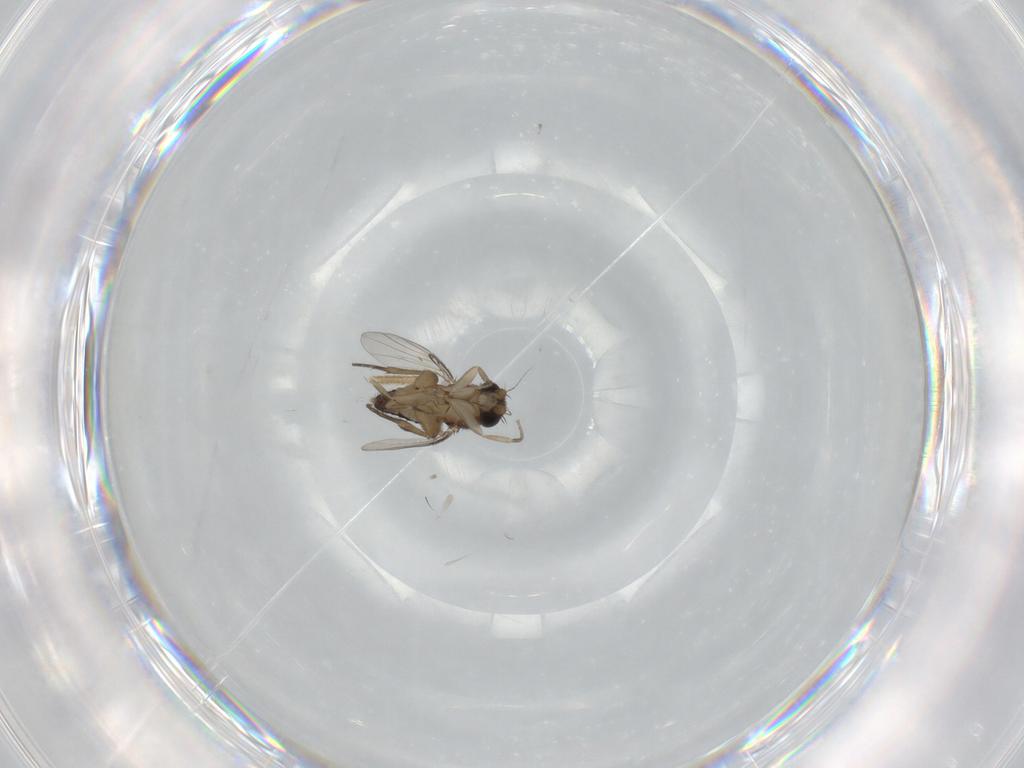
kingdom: Animalia
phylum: Arthropoda
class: Insecta
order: Diptera
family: Phoridae
